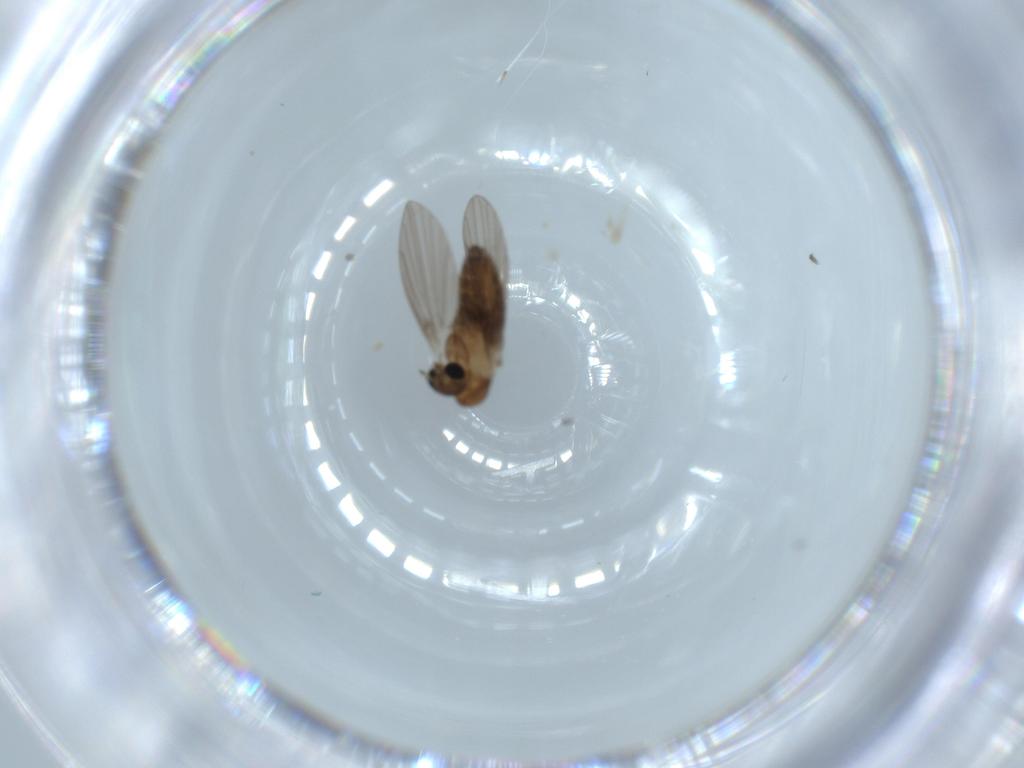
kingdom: Animalia
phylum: Arthropoda
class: Insecta
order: Diptera
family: Psychodidae
